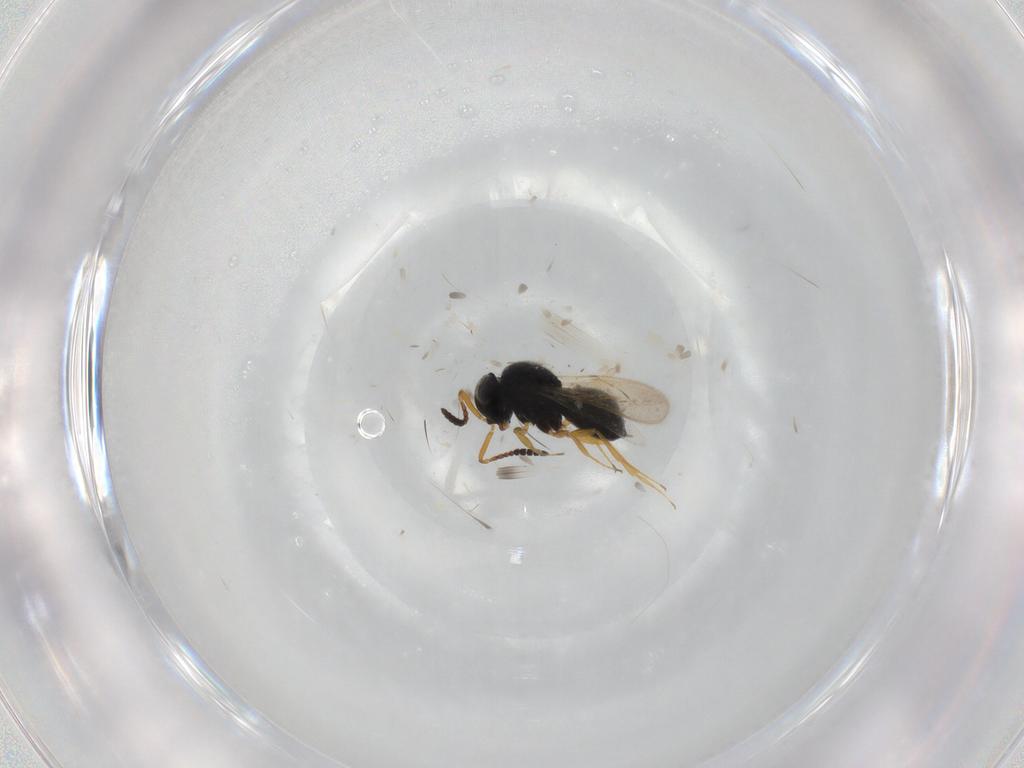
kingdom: Animalia
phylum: Arthropoda
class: Insecta
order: Hymenoptera
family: Scelionidae
